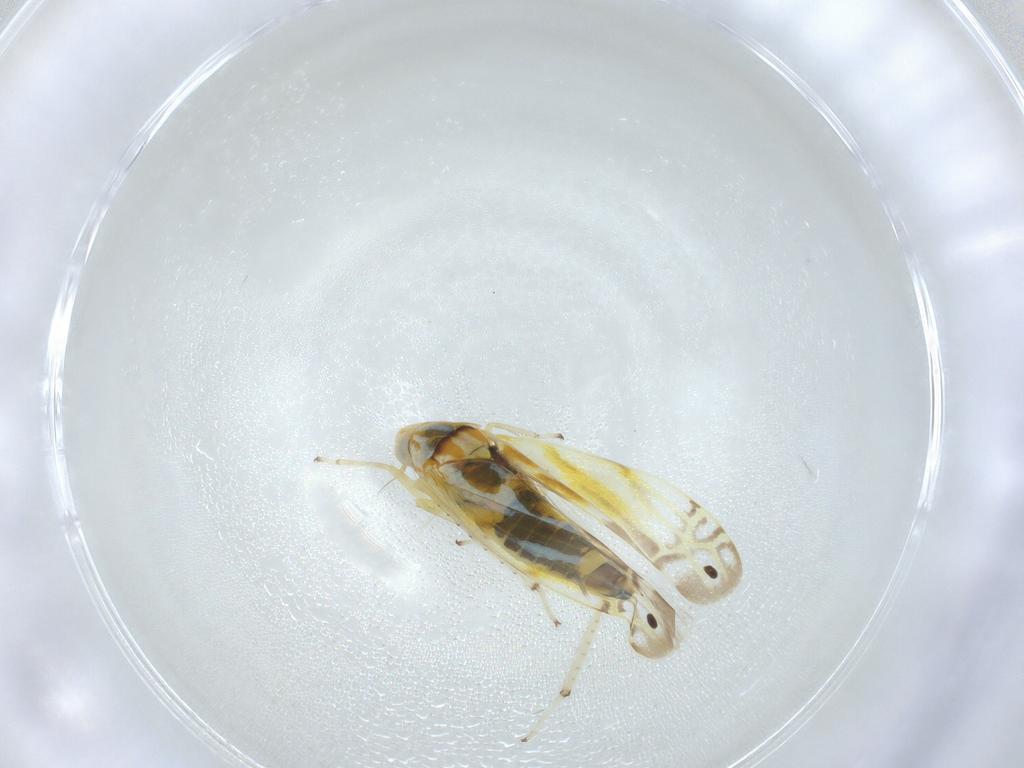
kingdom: Animalia
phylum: Arthropoda
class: Insecta
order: Hemiptera
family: Cicadellidae
